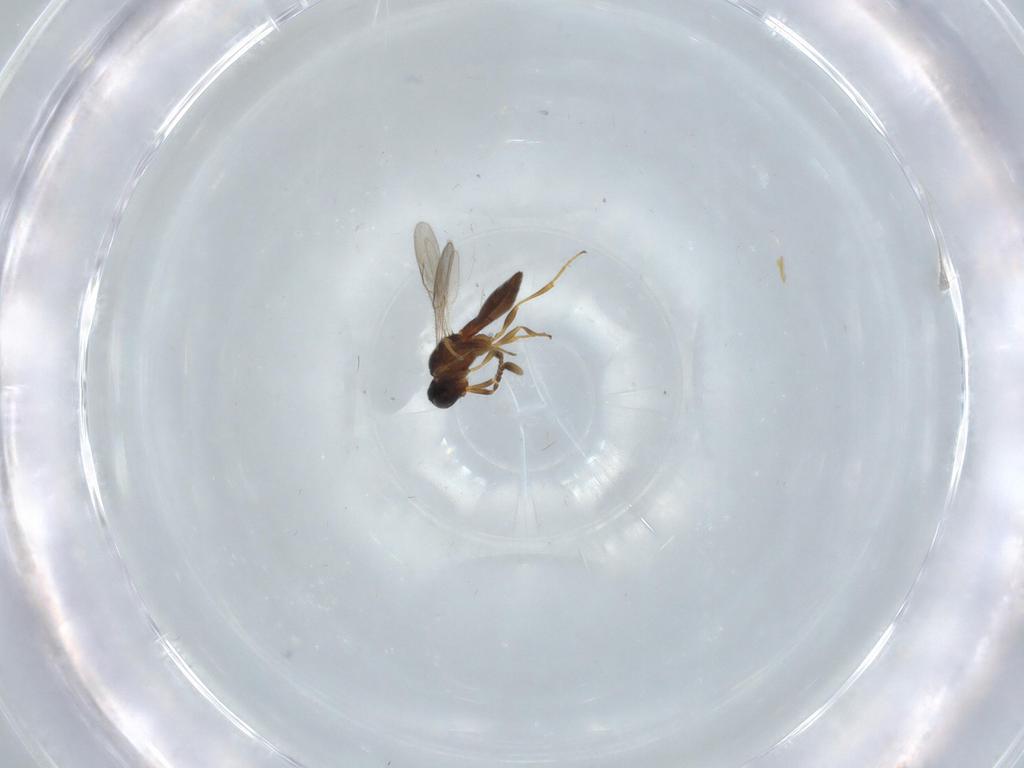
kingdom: Animalia
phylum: Arthropoda
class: Insecta
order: Hymenoptera
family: Scelionidae
